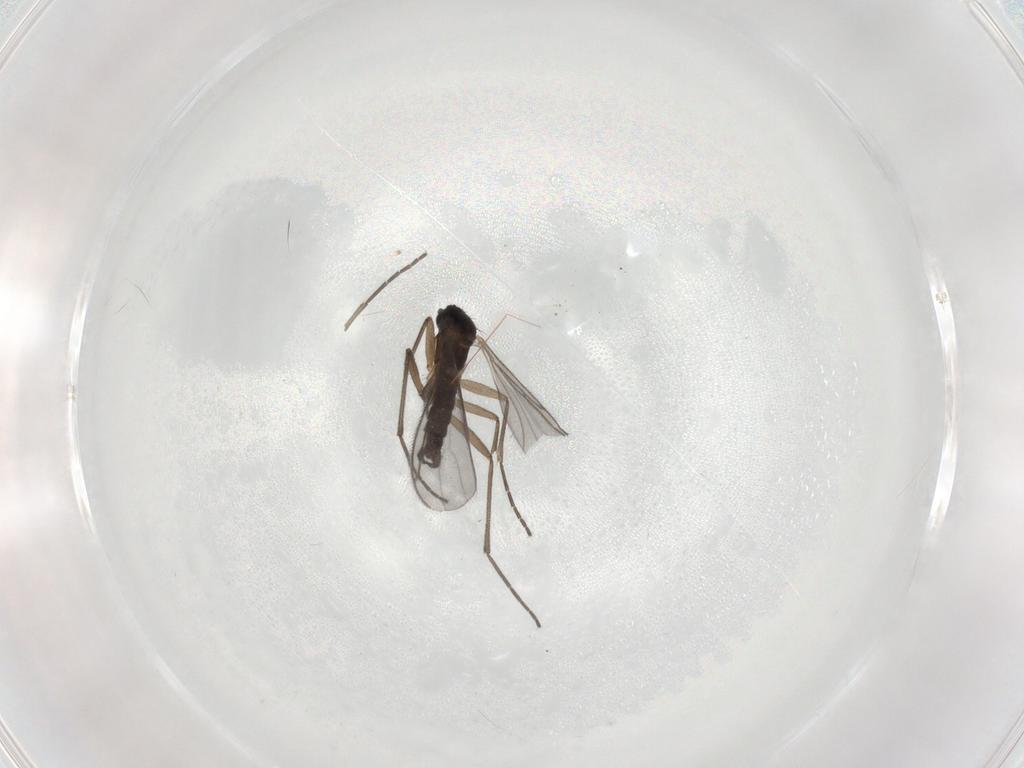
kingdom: Animalia
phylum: Arthropoda
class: Insecta
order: Diptera
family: Sciaridae
